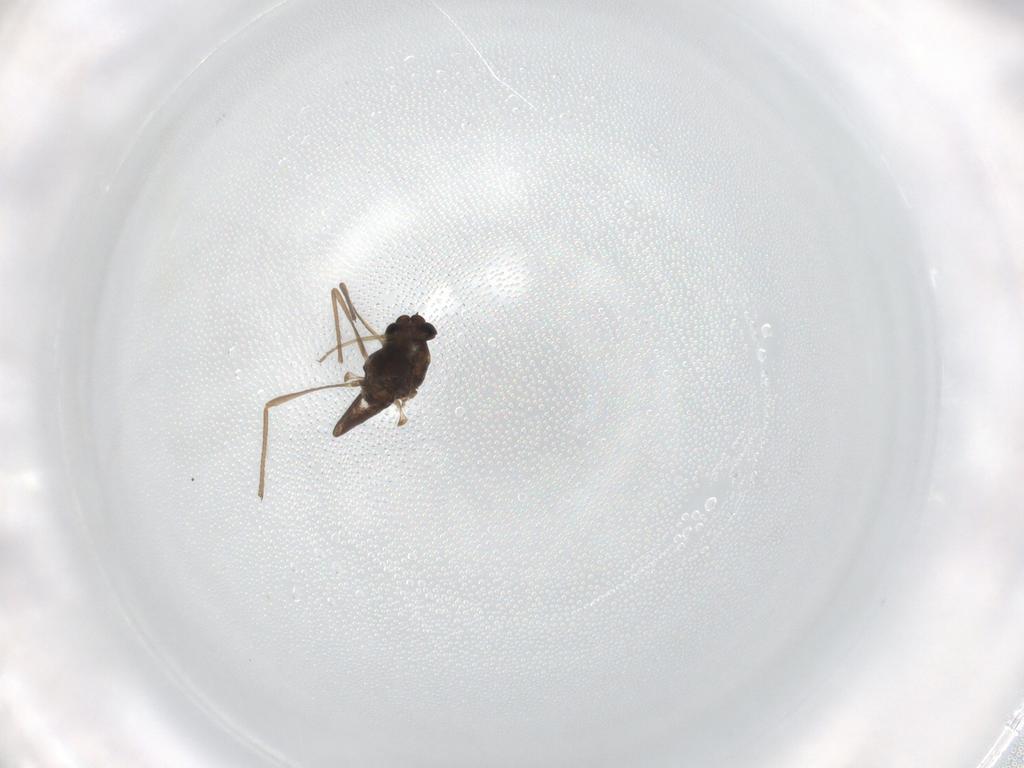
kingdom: Animalia
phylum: Arthropoda
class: Insecta
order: Diptera
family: Chironomidae
